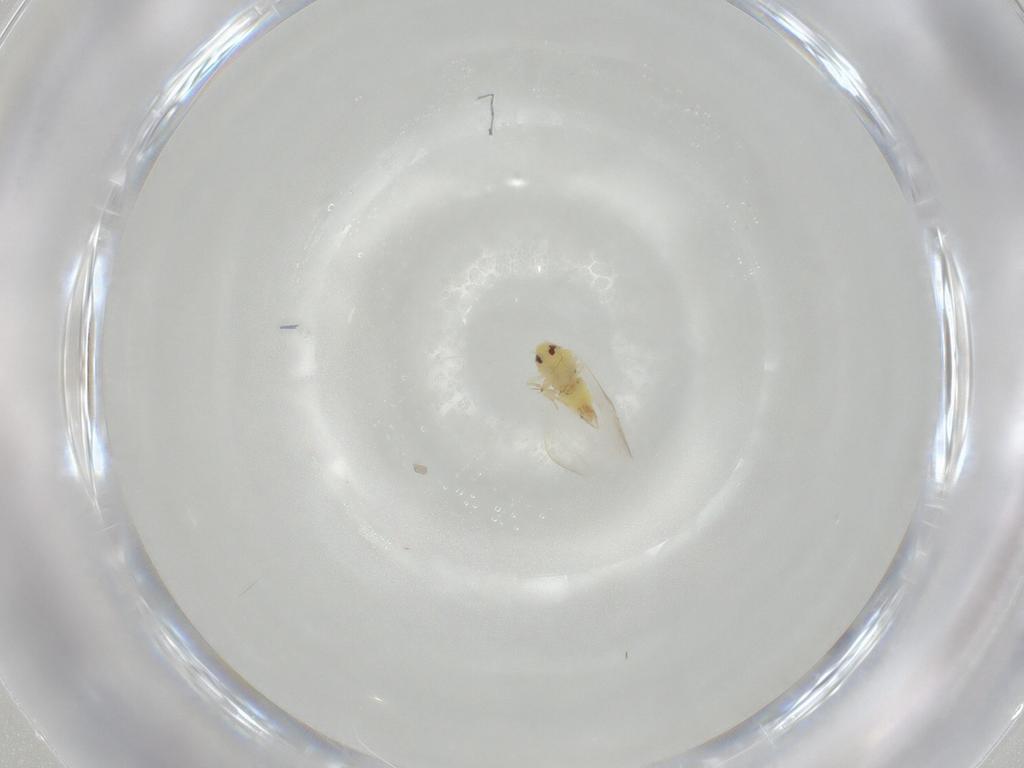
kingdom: Animalia
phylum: Arthropoda
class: Insecta
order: Hemiptera
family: Aleyrodidae
